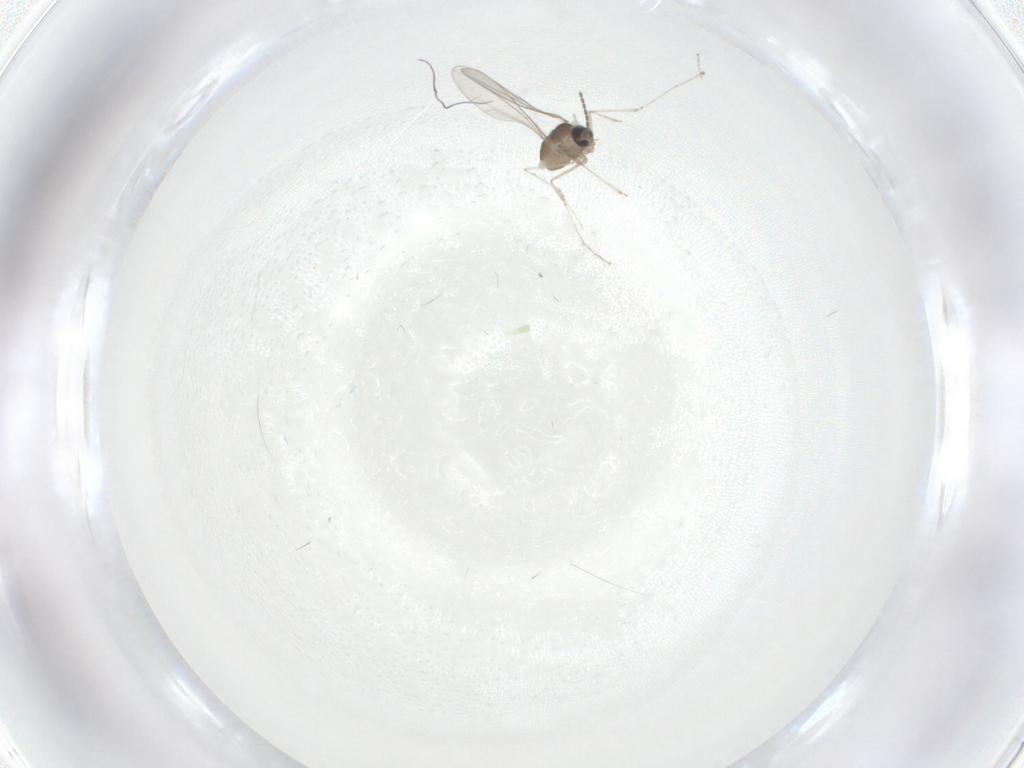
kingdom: Animalia
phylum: Arthropoda
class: Insecta
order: Diptera
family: Cecidomyiidae
